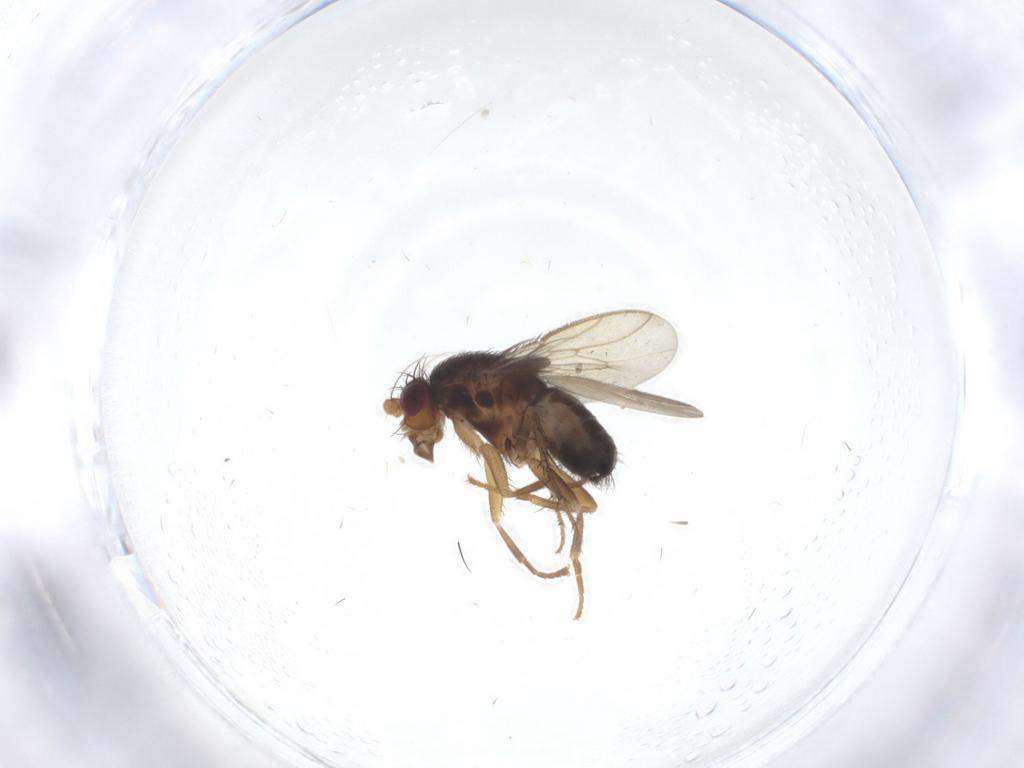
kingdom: Animalia
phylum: Arthropoda
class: Insecta
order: Diptera
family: Sphaeroceridae
